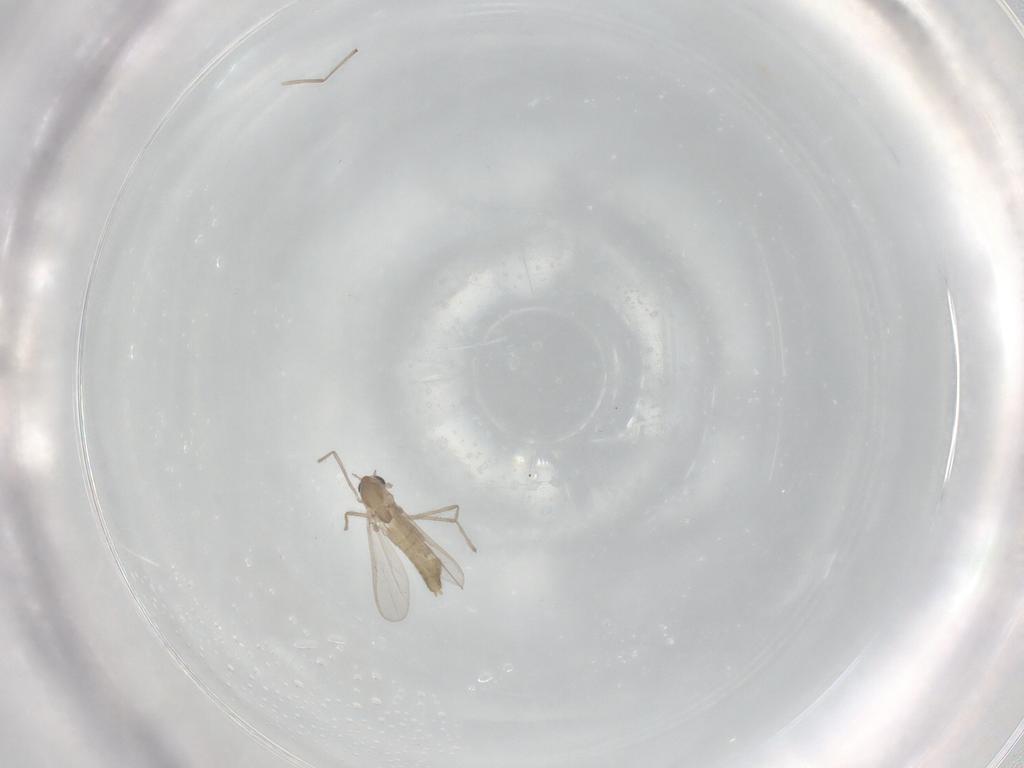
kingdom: Animalia
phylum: Arthropoda
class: Insecta
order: Diptera
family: Chironomidae
